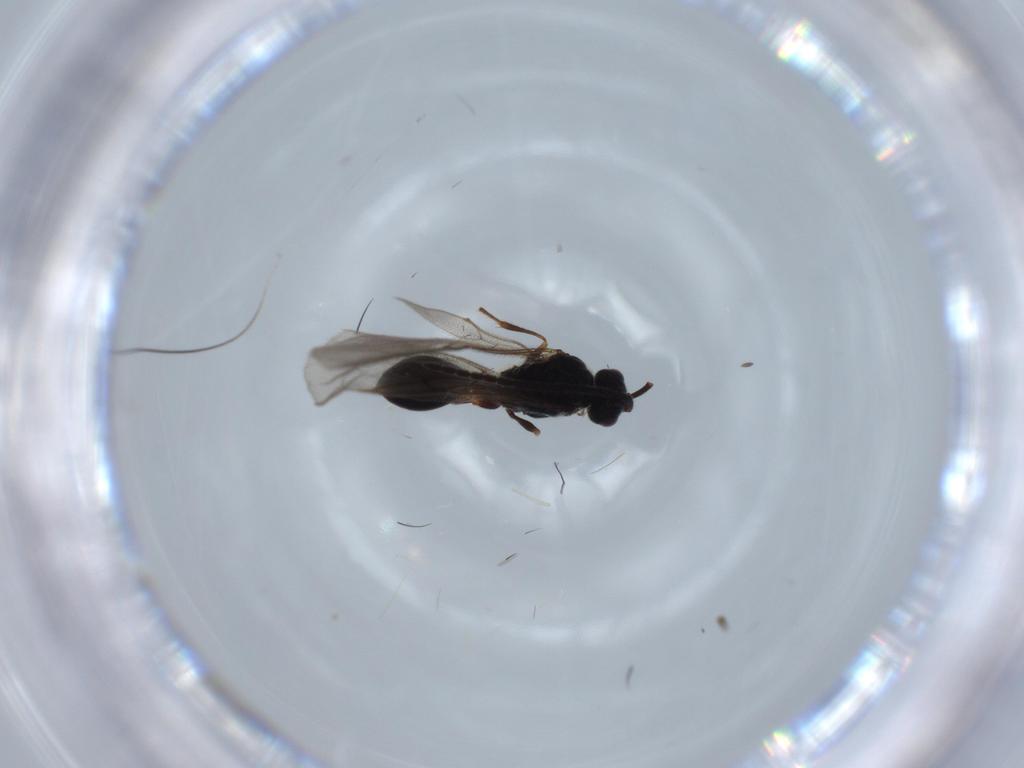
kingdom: Animalia
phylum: Arthropoda
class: Insecta
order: Hymenoptera
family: Diapriidae
